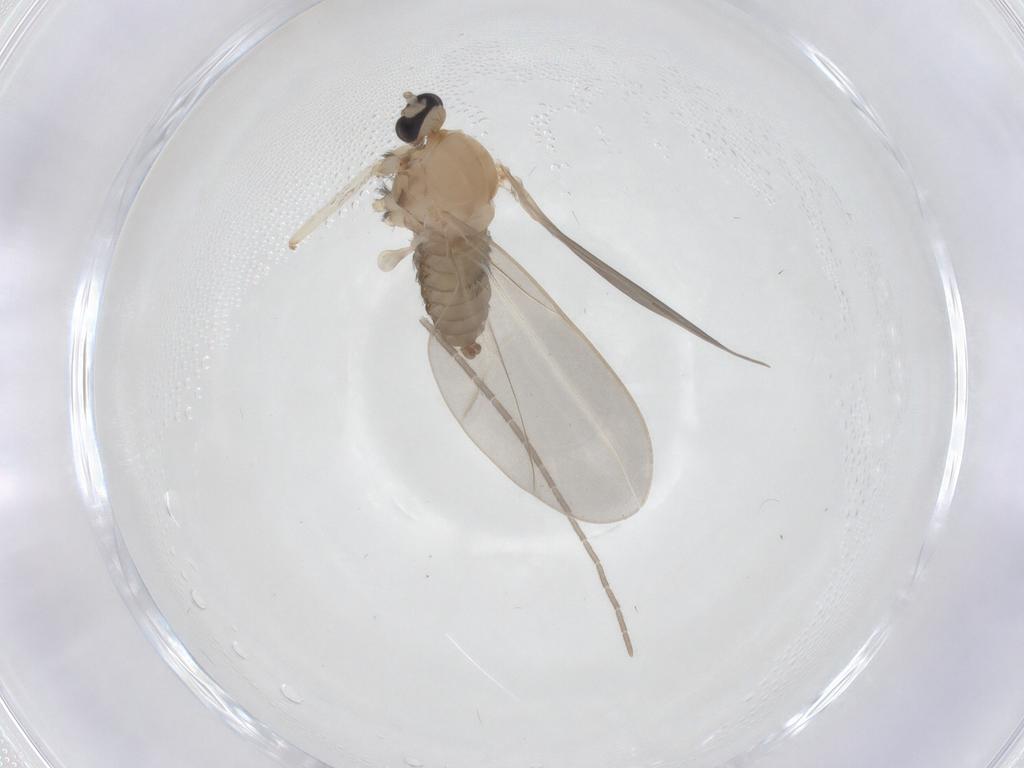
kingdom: Animalia
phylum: Arthropoda
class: Insecta
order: Diptera
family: Cecidomyiidae
